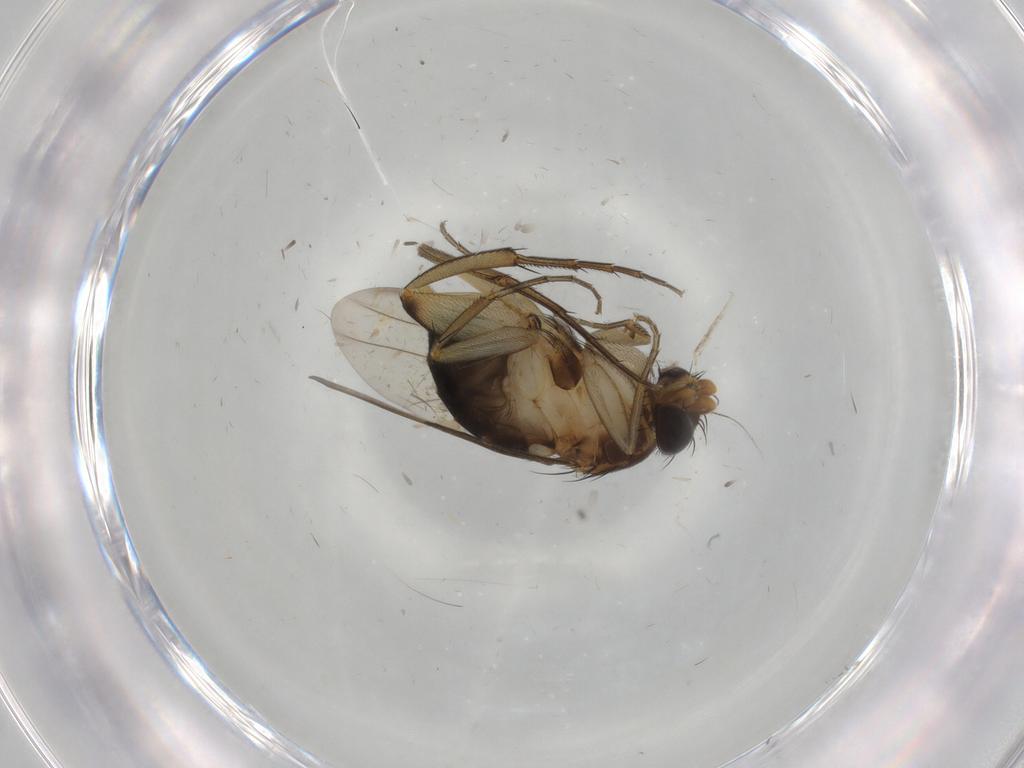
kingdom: Animalia
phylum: Arthropoda
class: Insecta
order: Diptera
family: Phoridae
